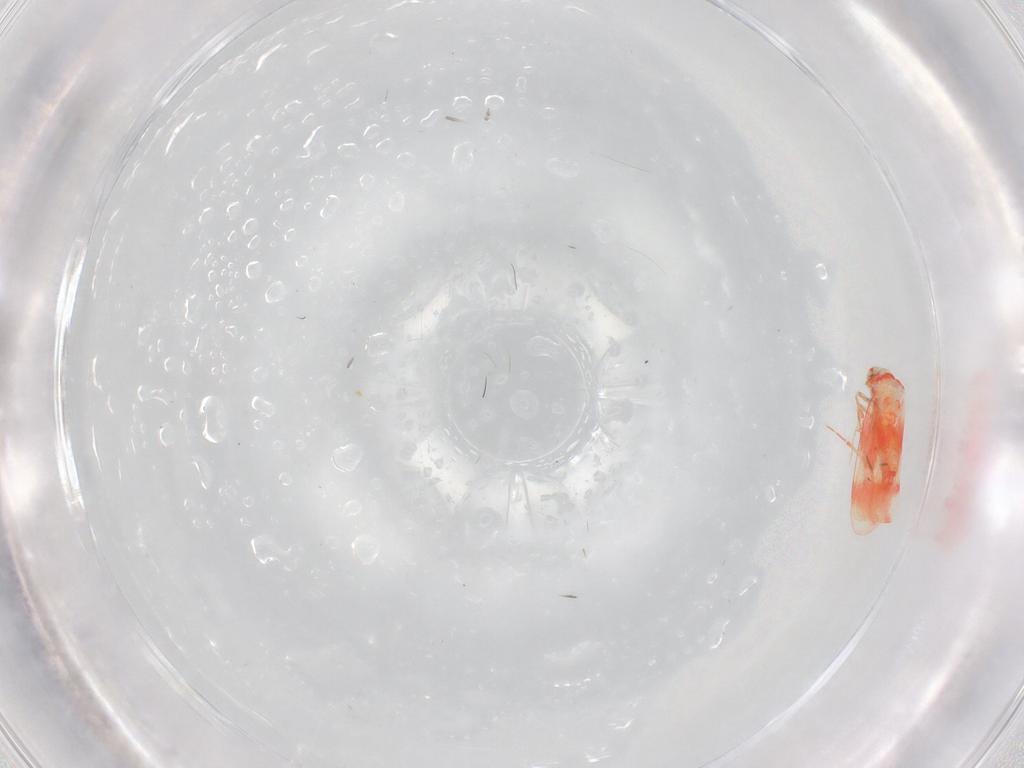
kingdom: Animalia
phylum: Arthropoda
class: Insecta
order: Hemiptera
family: Aleyrodidae
